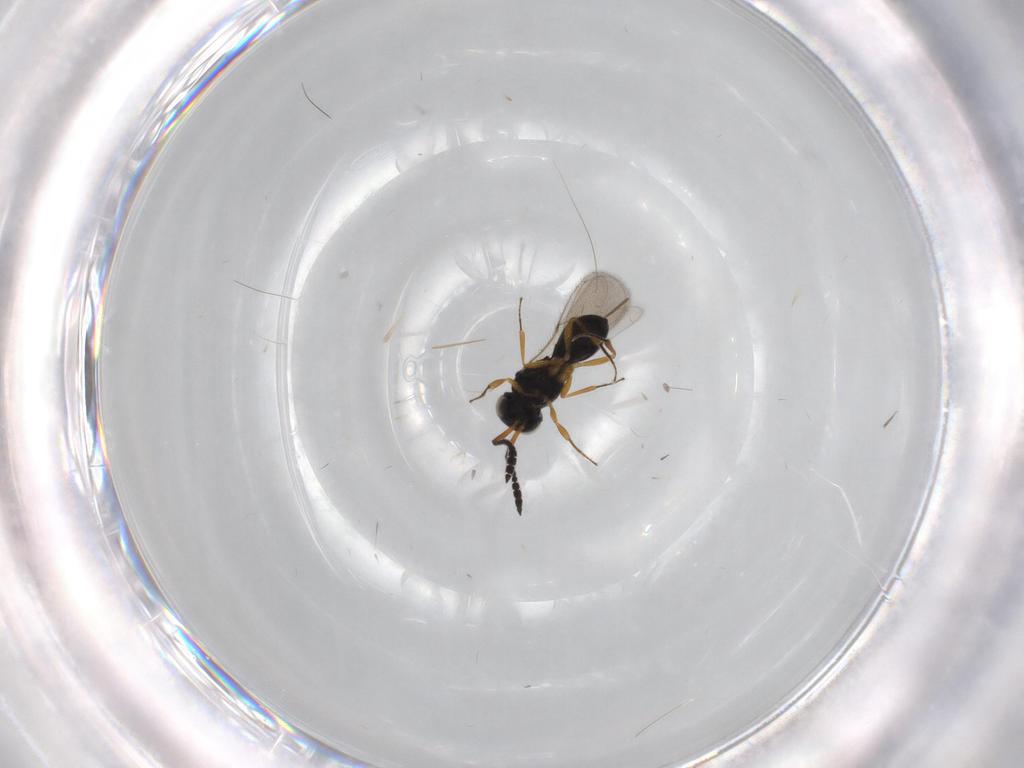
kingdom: Animalia
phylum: Arthropoda
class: Insecta
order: Hymenoptera
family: Scelionidae
